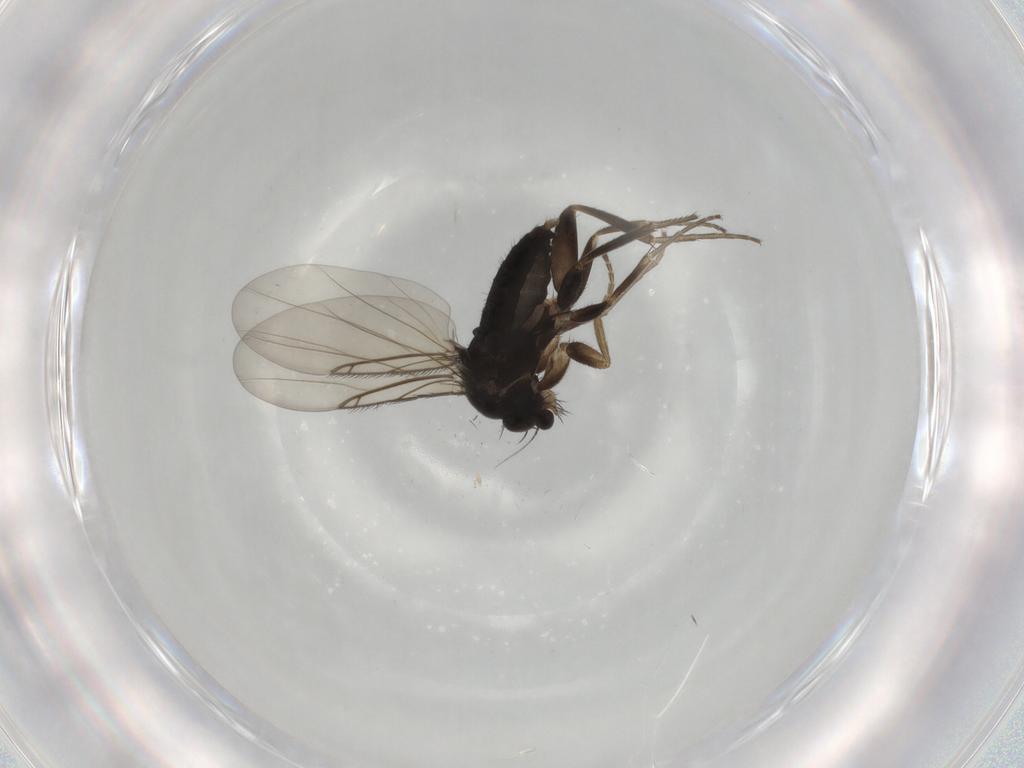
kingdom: Animalia
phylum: Arthropoda
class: Insecta
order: Diptera
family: Phoridae
